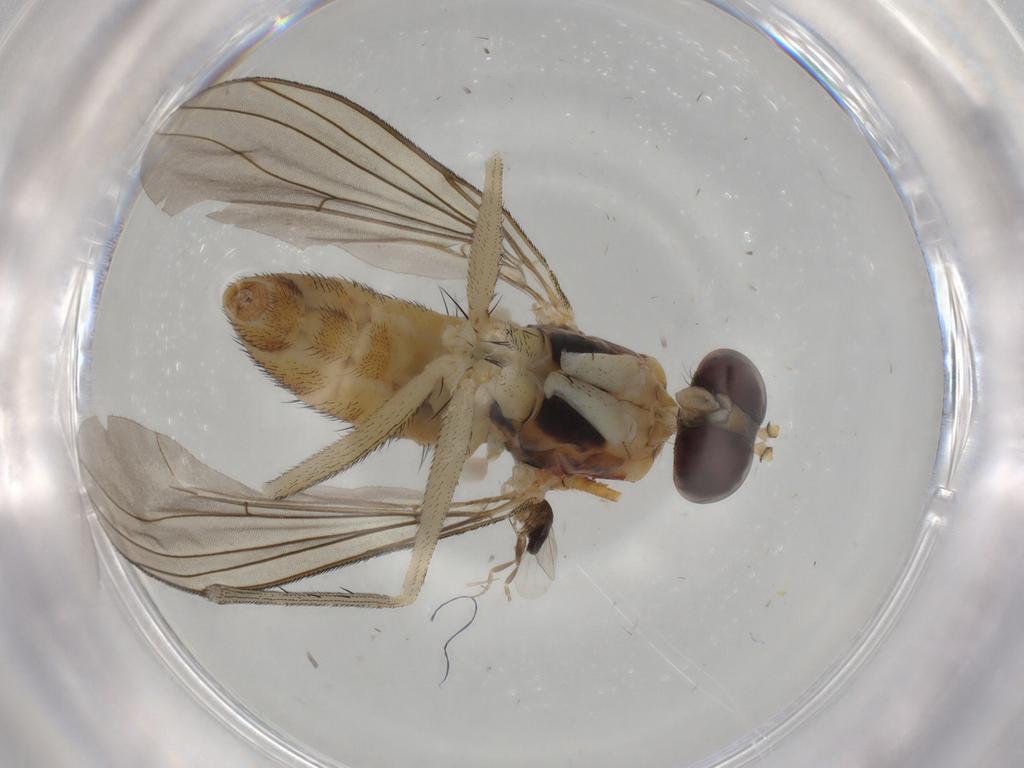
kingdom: Animalia
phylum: Arthropoda
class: Insecta
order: Diptera
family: Dolichopodidae
